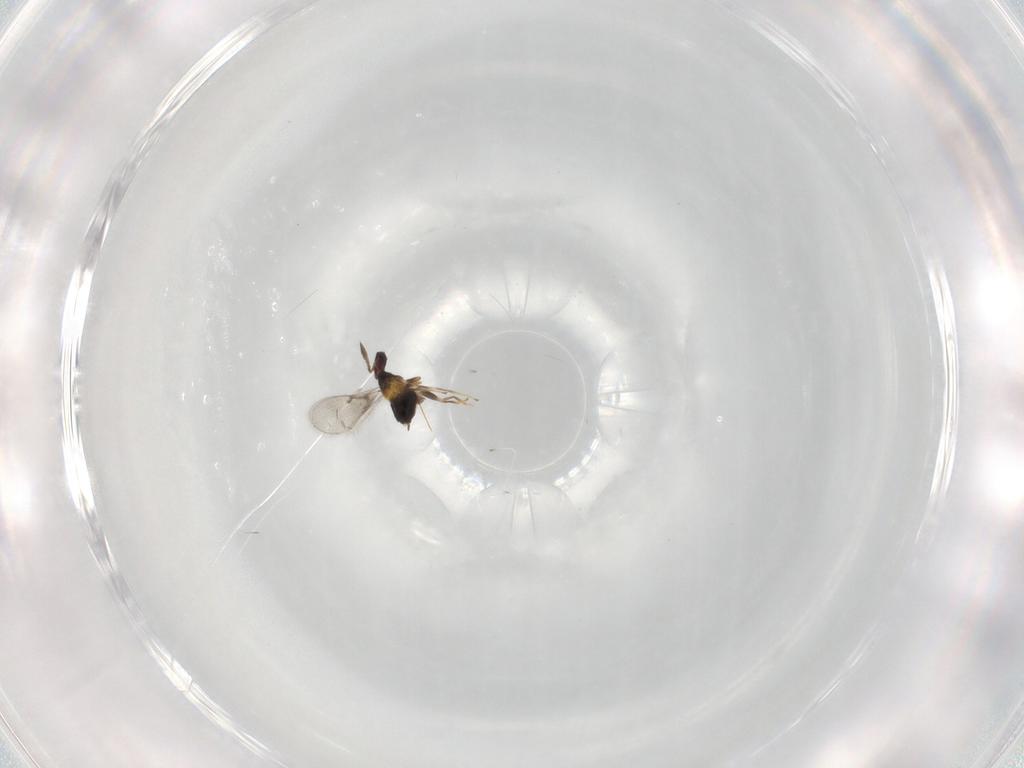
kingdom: Animalia
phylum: Arthropoda
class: Insecta
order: Hymenoptera
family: Trichogrammatidae
